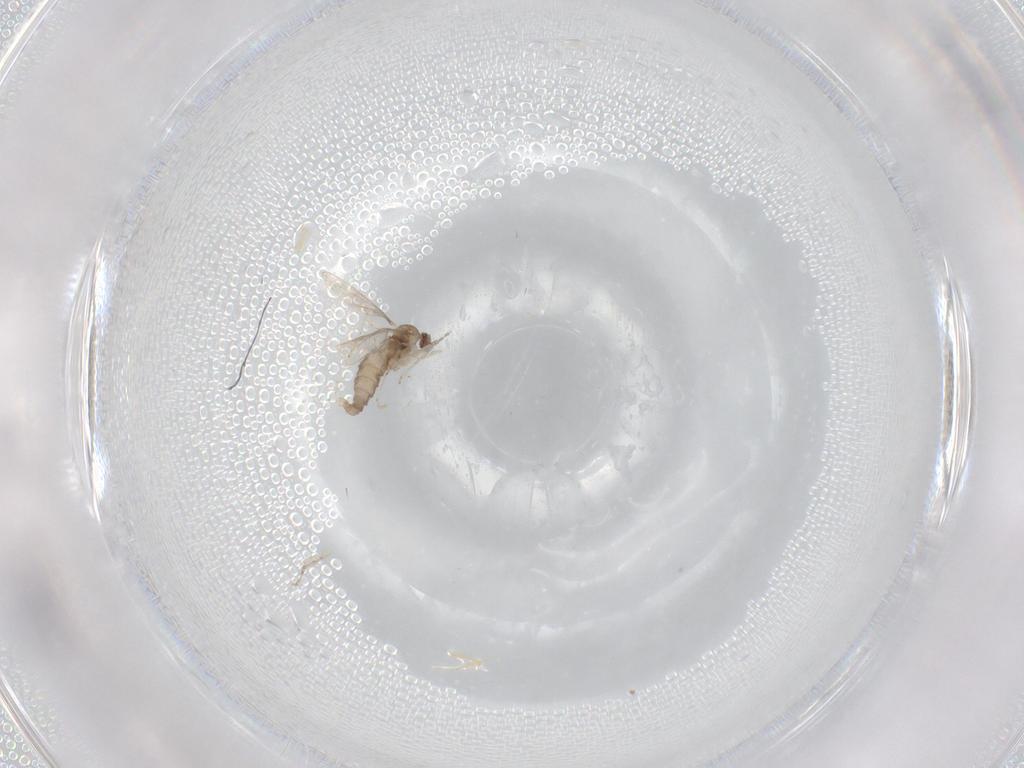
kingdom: Animalia
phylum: Arthropoda
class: Insecta
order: Diptera
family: Cecidomyiidae
